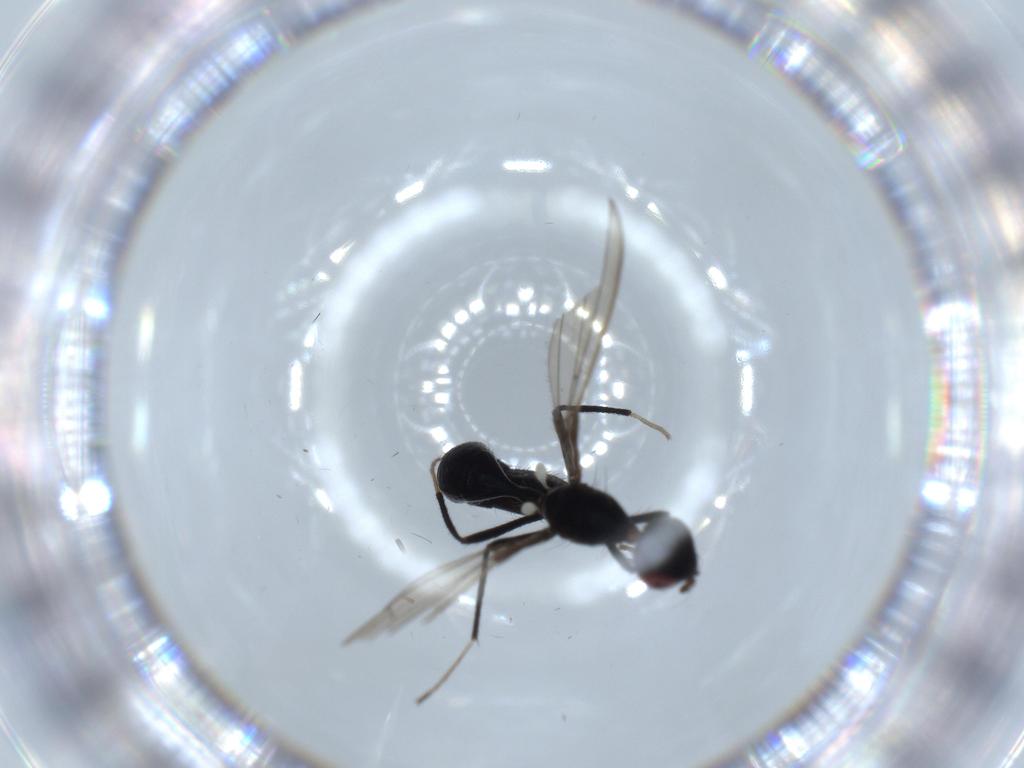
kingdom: Animalia
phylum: Arthropoda
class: Insecta
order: Diptera
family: Richardiidae
